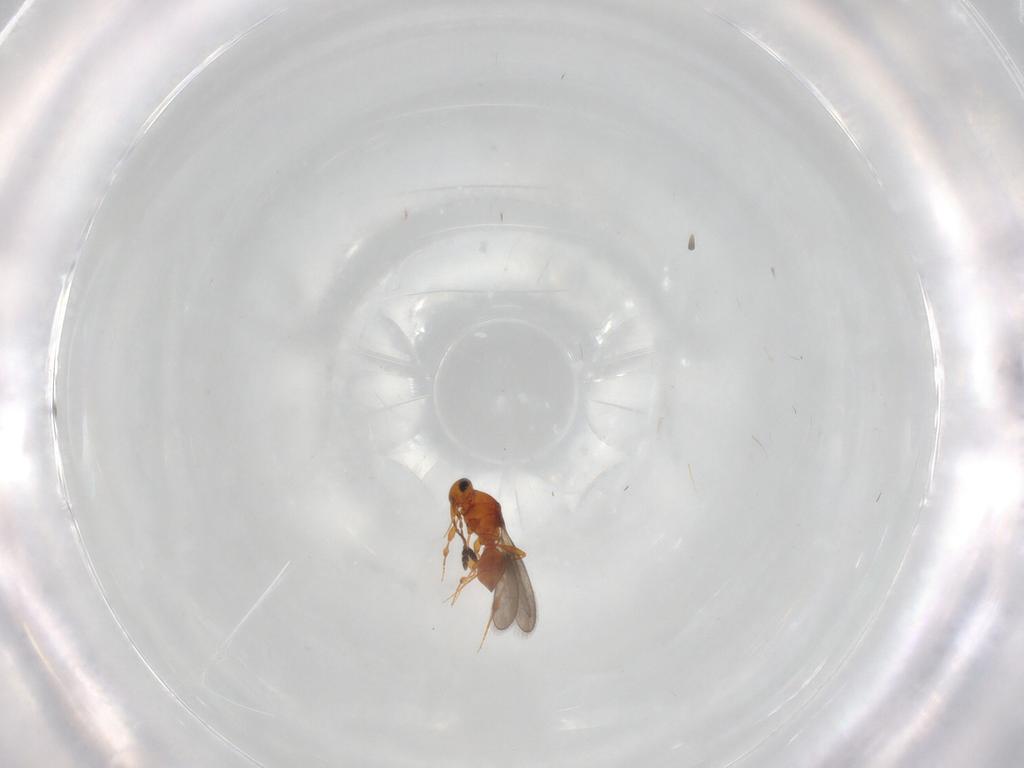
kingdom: Animalia
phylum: Arthropoda
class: Insecta
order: Hymenoptera
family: Platygastridae
